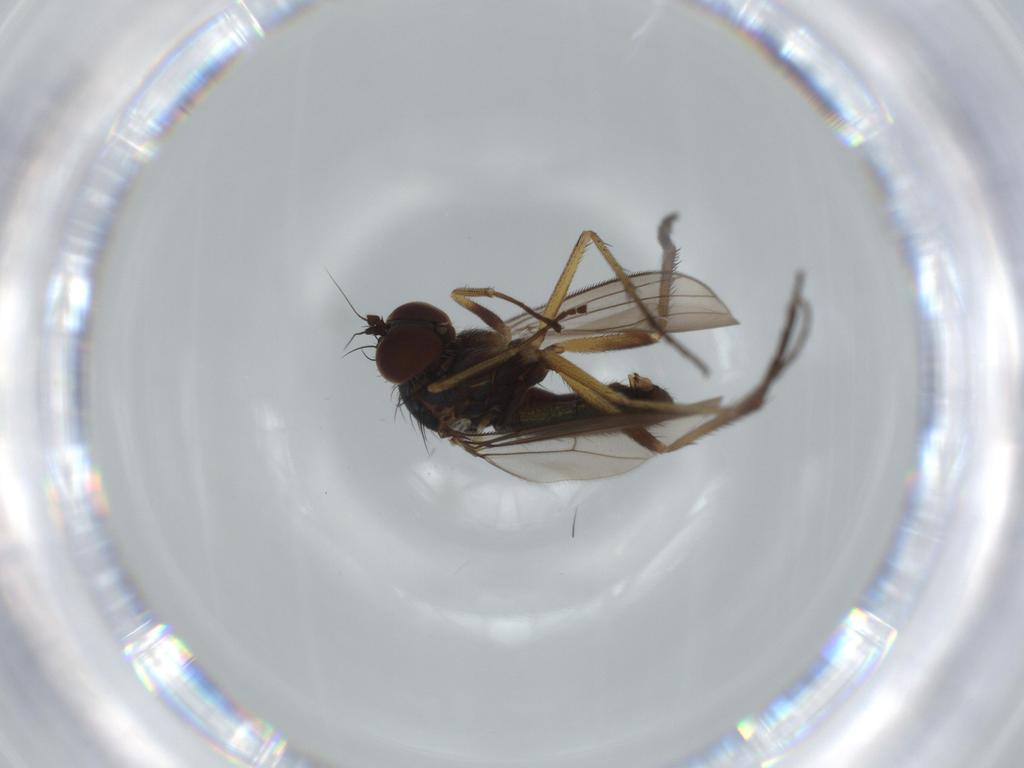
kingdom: Animalia
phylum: Arthropoda
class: Insecta
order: Diptera
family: Dolichopodidae
